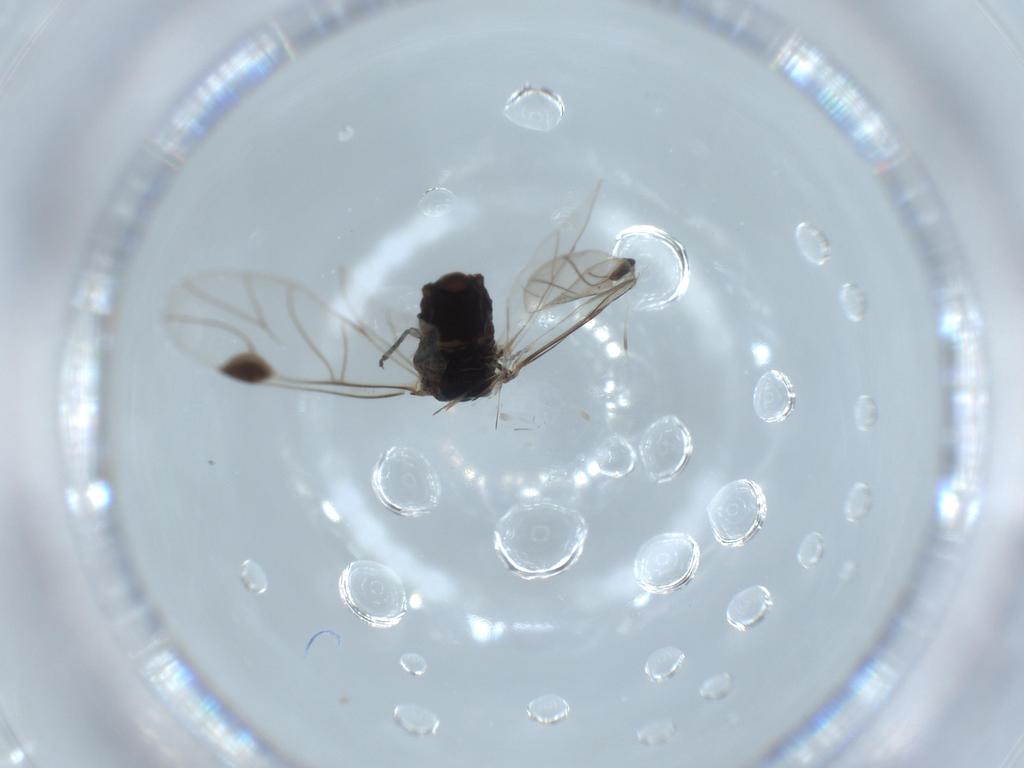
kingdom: Animalia
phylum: Arthropoda
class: Insecta
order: Hemiptera
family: Aphididae
